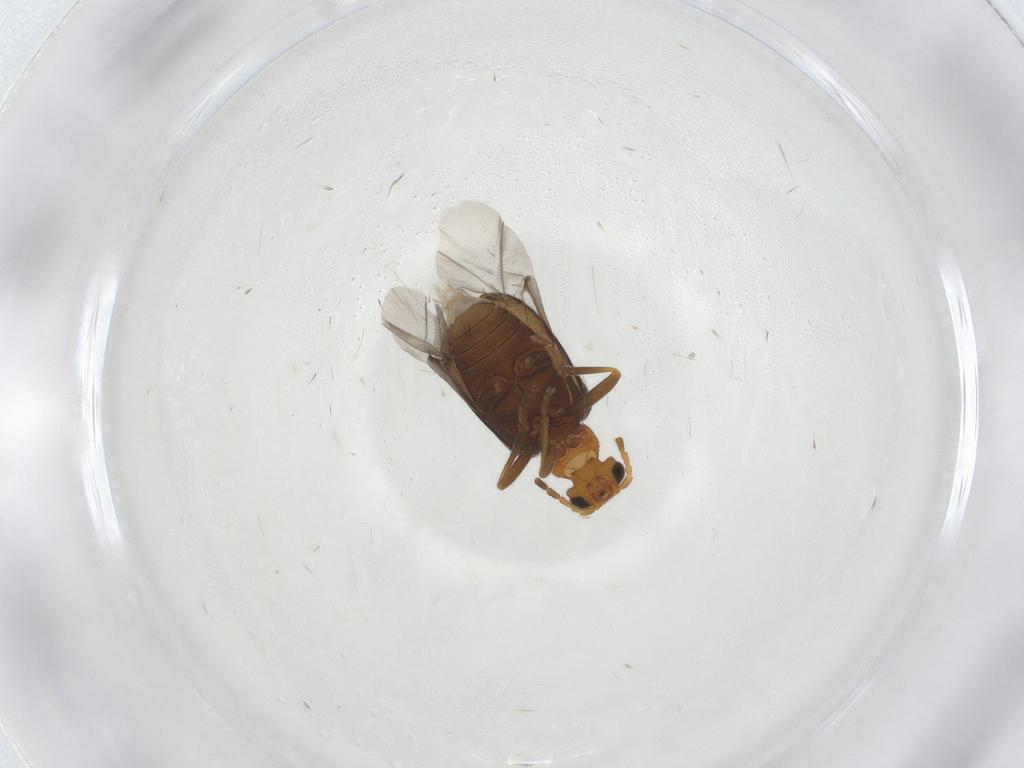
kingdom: Animalia
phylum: Arthropoda
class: Insecta
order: Coleoptera
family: Aderidae
